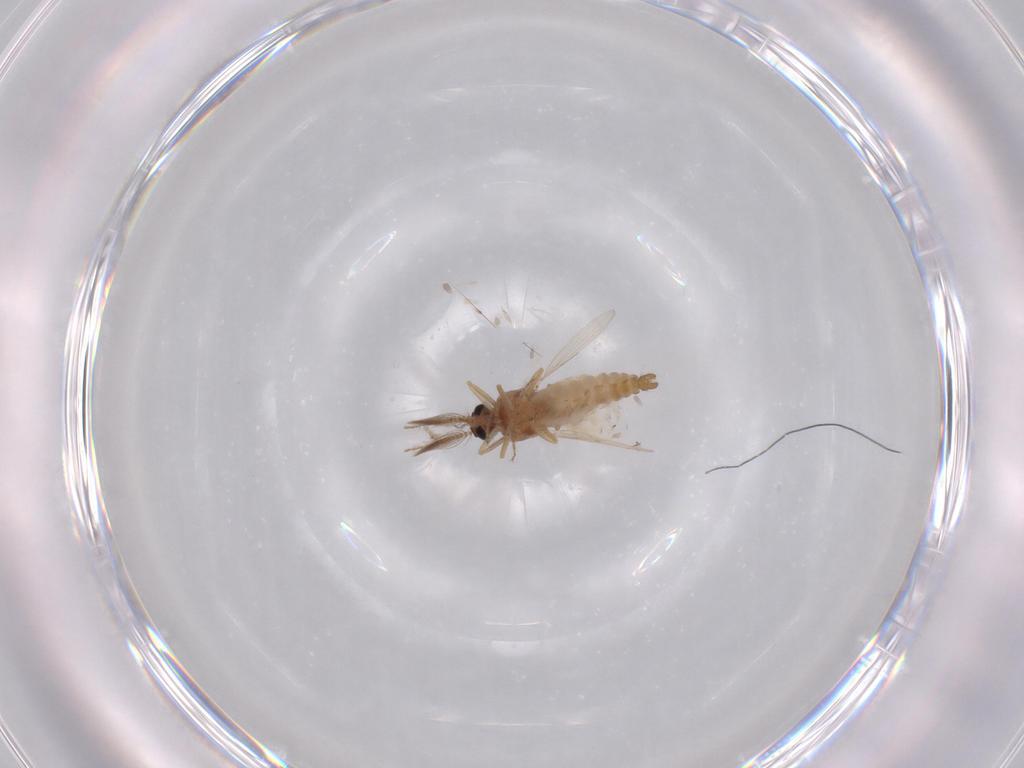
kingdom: Animalia
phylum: Arthropoda
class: Insecta
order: Diptera
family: Ceratopogonidae
